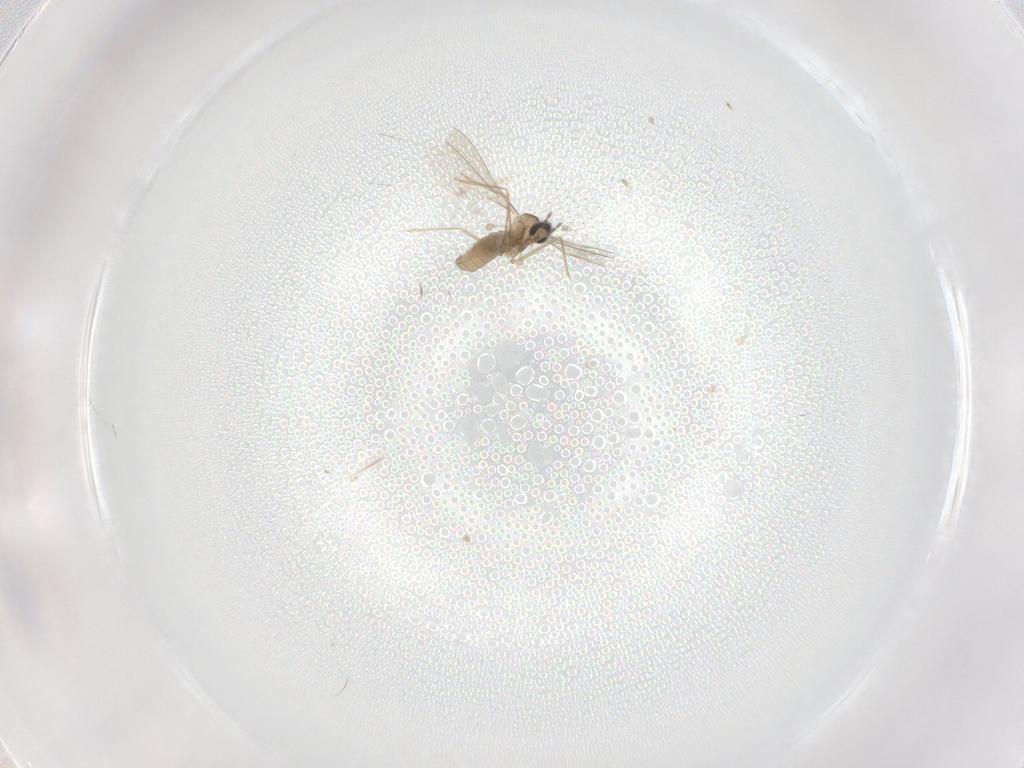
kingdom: Animalia
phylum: Arthropoda
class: Insecta
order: Diptera
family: Cecidomyiidae
